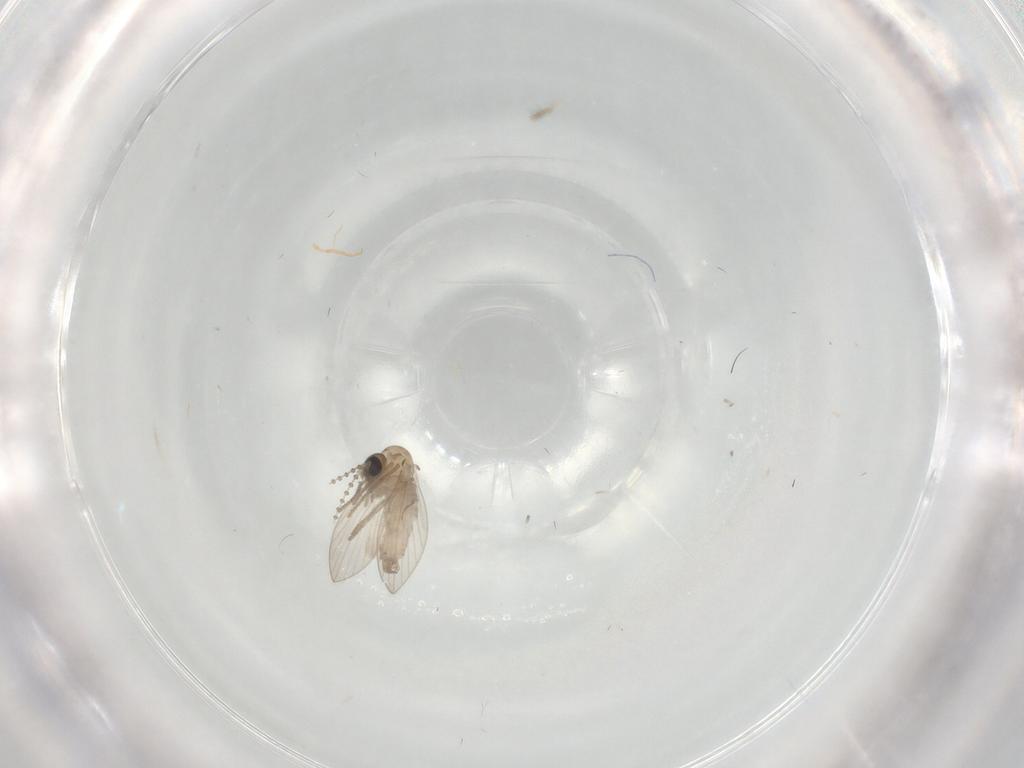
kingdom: Animalia
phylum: Arthropoda
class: Insecta
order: Diptera
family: Psychodidae
